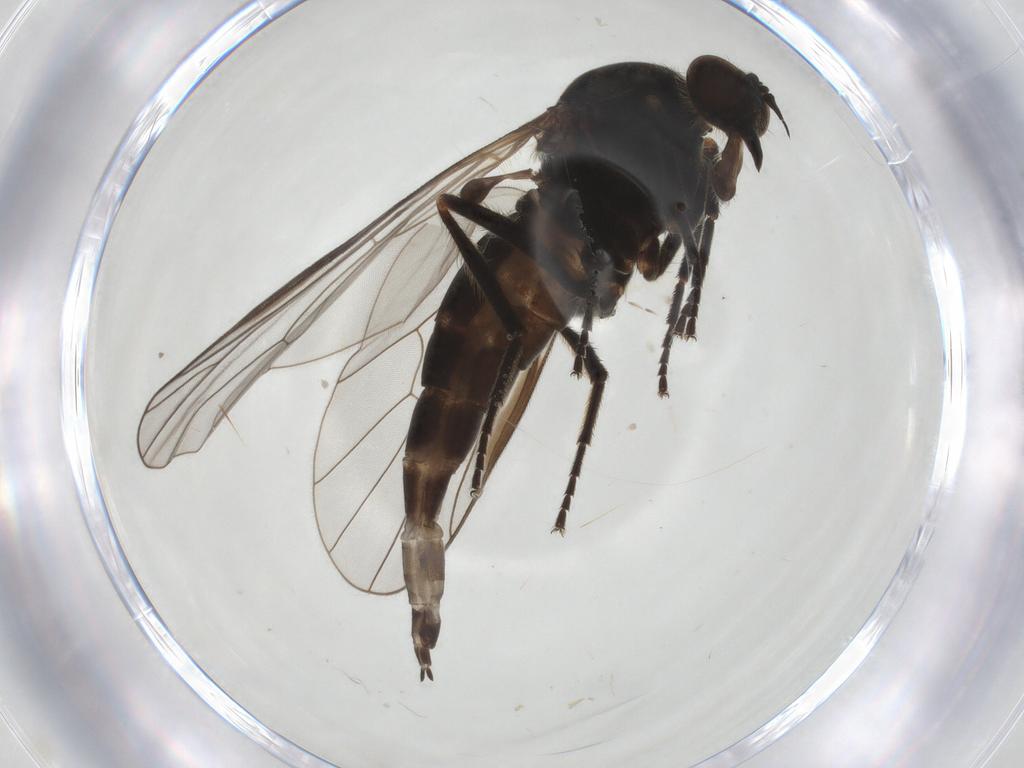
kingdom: Animalia
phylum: Arthropoda
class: Insecta
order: Diptera
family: Empididae
